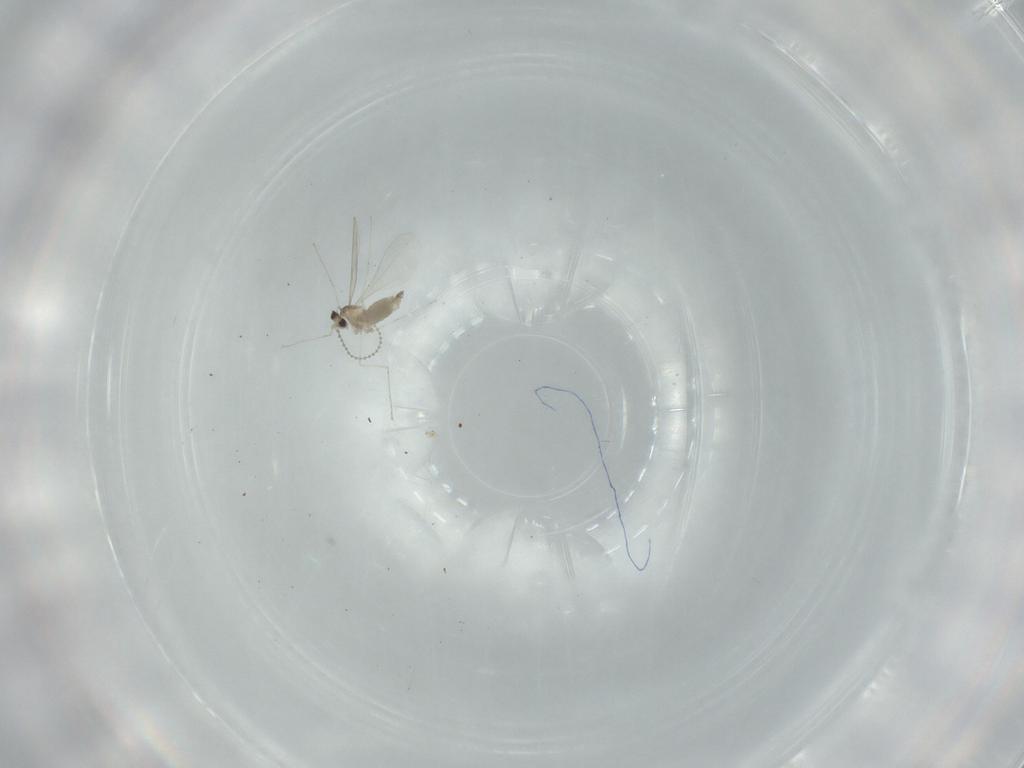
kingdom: Animalia
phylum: Arthropoda
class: Insecta
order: Diptera
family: Cecidomyiidae
